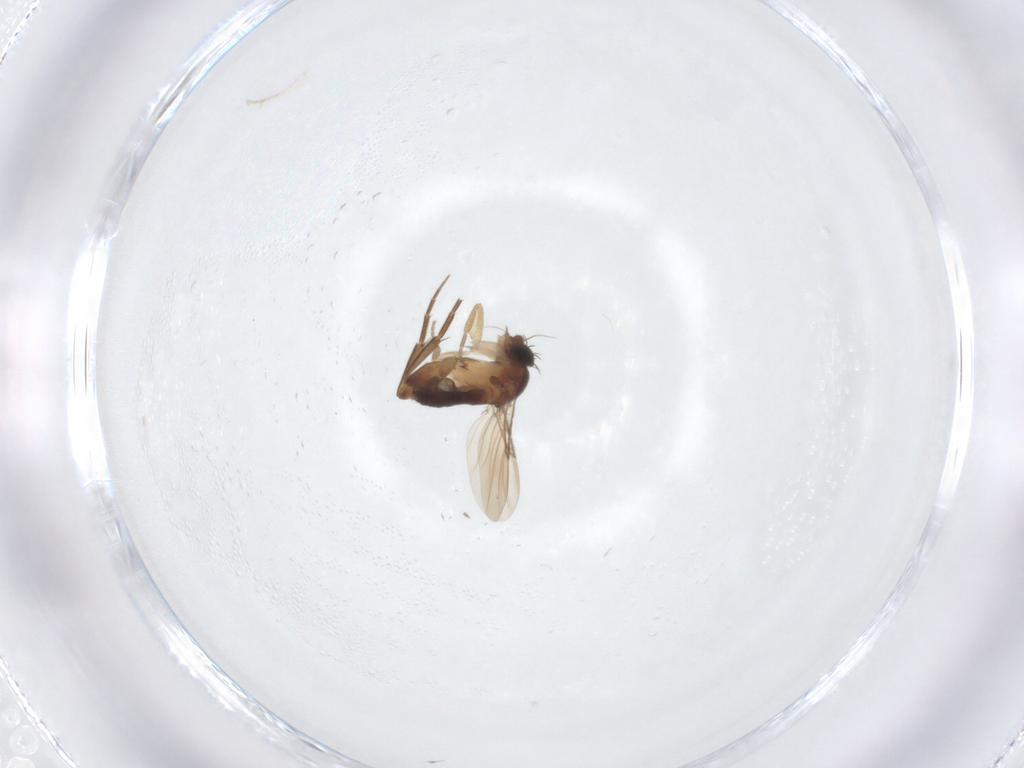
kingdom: Animalia
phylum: Arthropoda
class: Insecta
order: Diptera
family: Chironomidae
